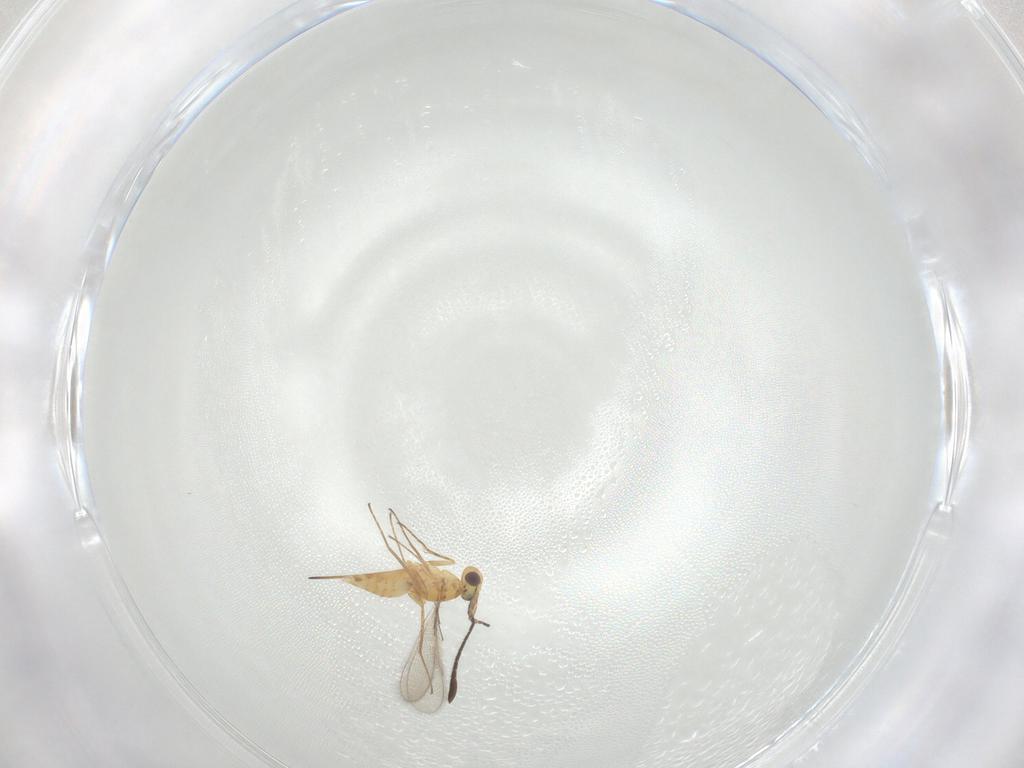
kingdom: Animalia
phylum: Arthropoda
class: Insecta
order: Hymenoptera
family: Mymaridae
